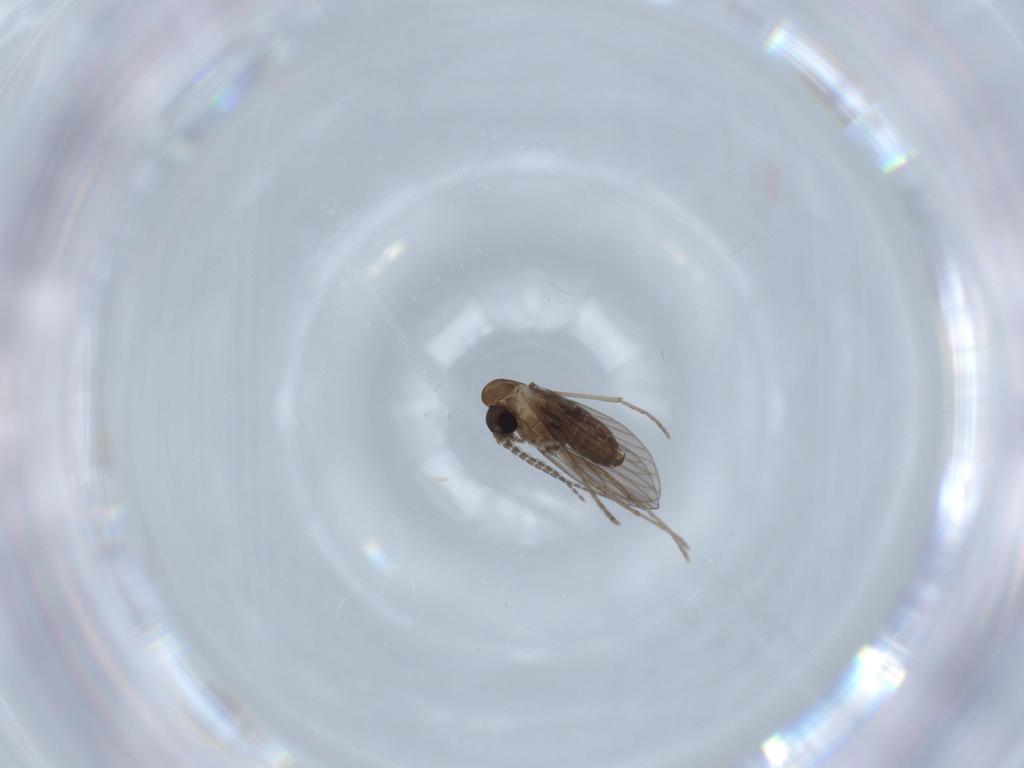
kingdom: Animalia
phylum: Arthropoda
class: Insecta
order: Diptera
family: Psychodidae
